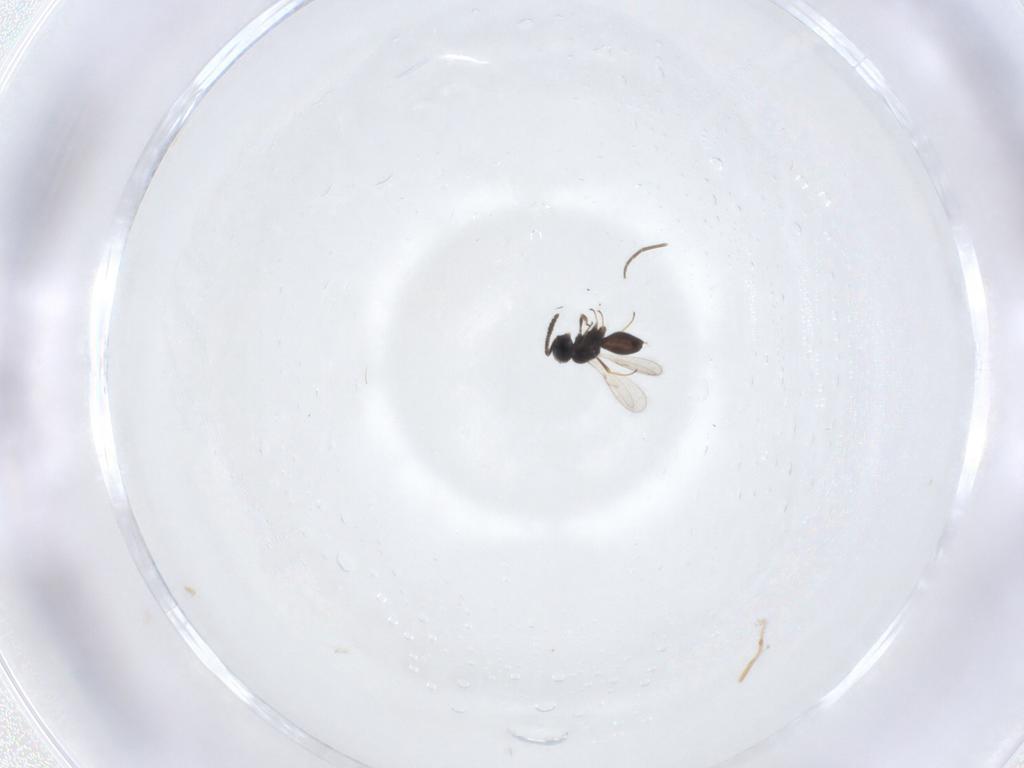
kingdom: Animalia
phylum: Arthropoda
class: Insecta
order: Hymenoptera
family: Scelionidae
